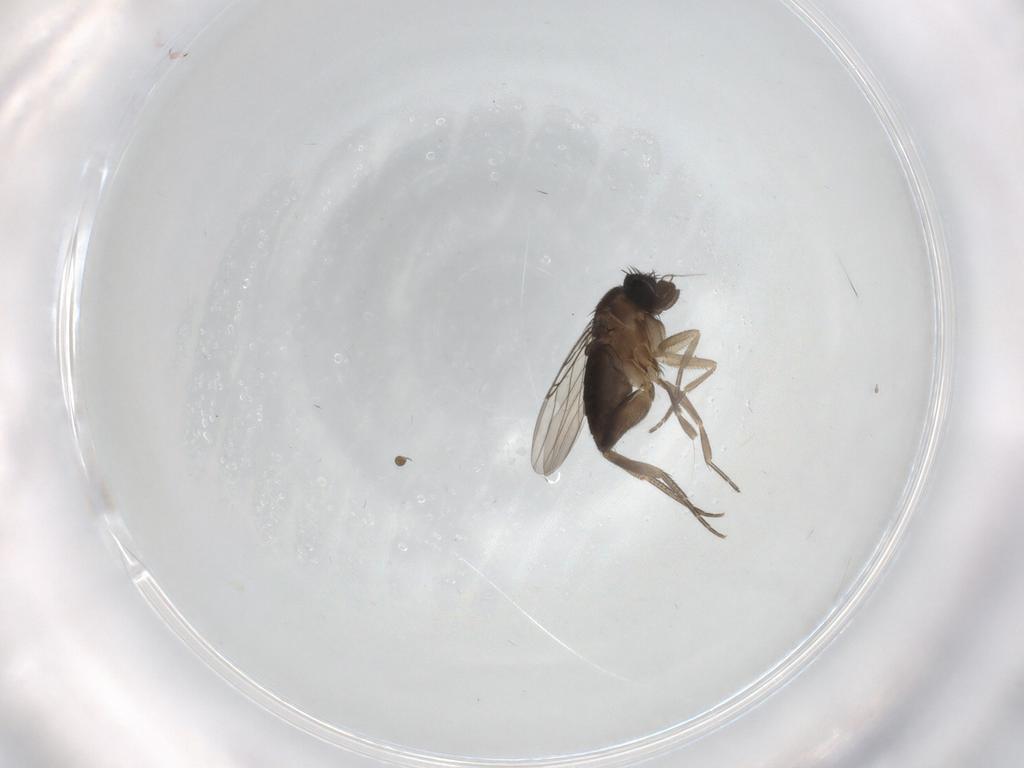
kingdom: Animalia
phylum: Arthropoda
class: Insecta
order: Diptera
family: Phoridae
